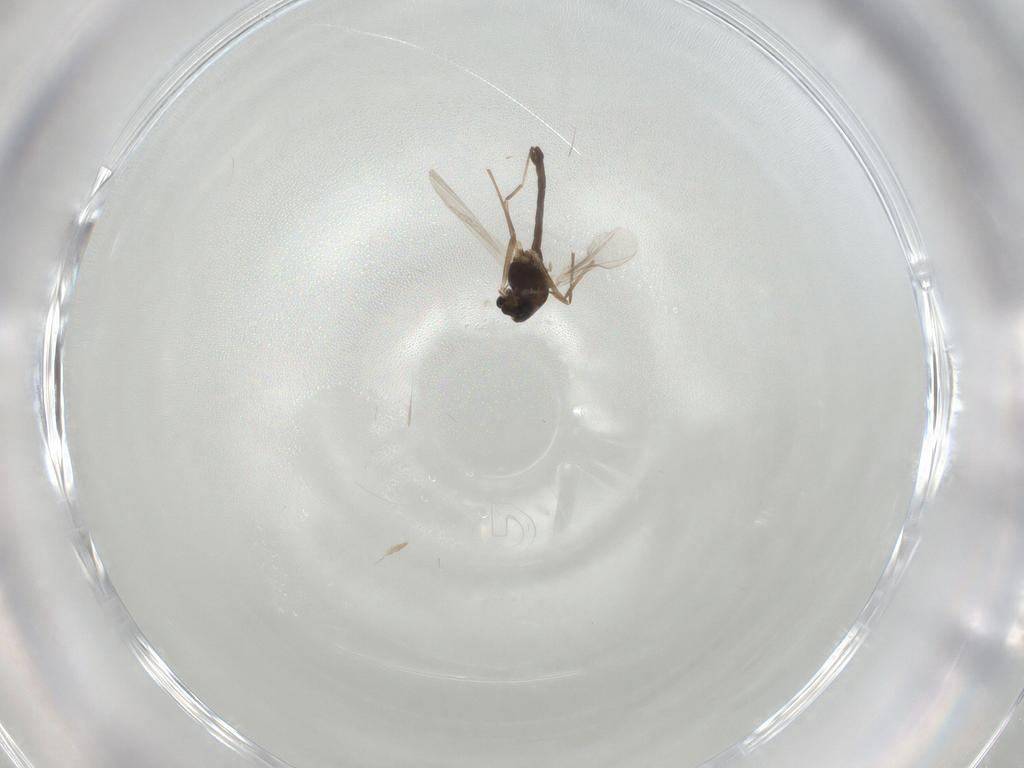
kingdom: Animalia
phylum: Arthropoda
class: Insecta
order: Diptera
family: Chironomidae
